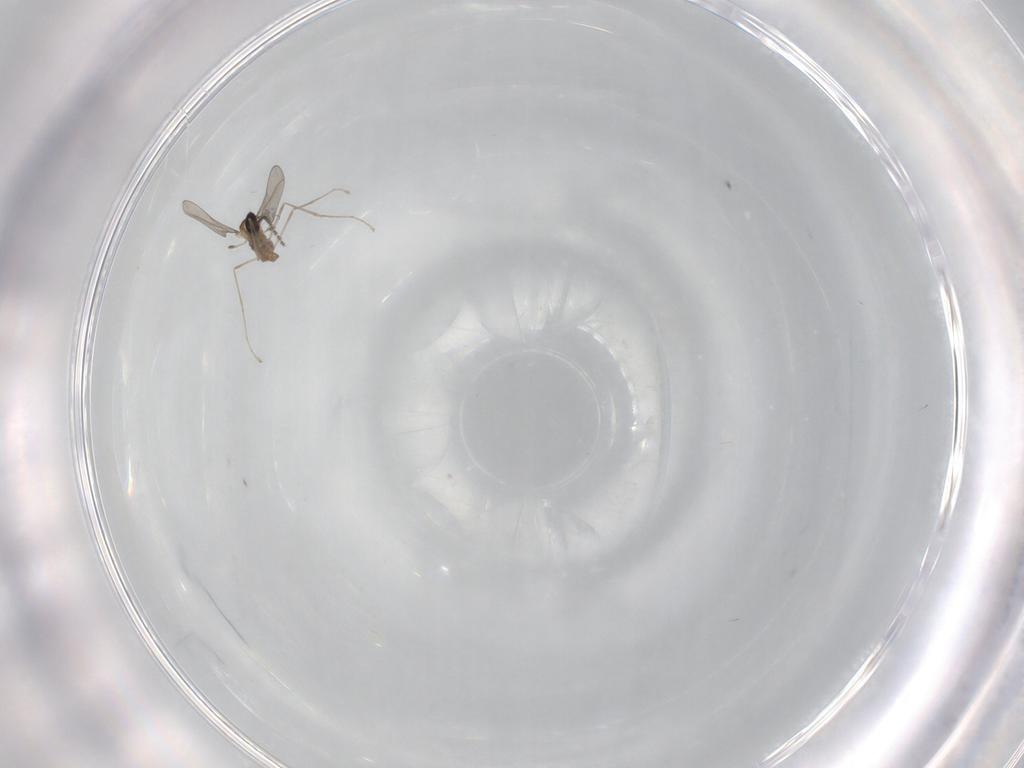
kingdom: Animalia
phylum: Arthropoda
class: Insecta
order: Diptera
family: Cecidomyiidae
